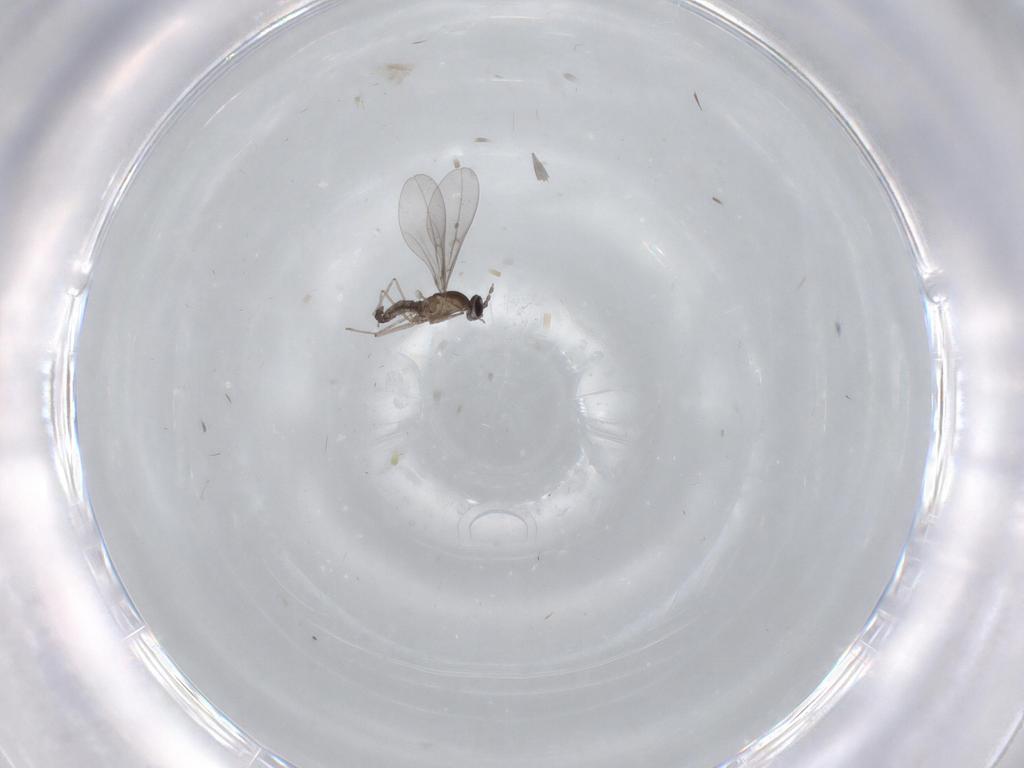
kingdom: Animalia
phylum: Arthropoda
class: Insecta
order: Diptera
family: Cecidomyiidae
